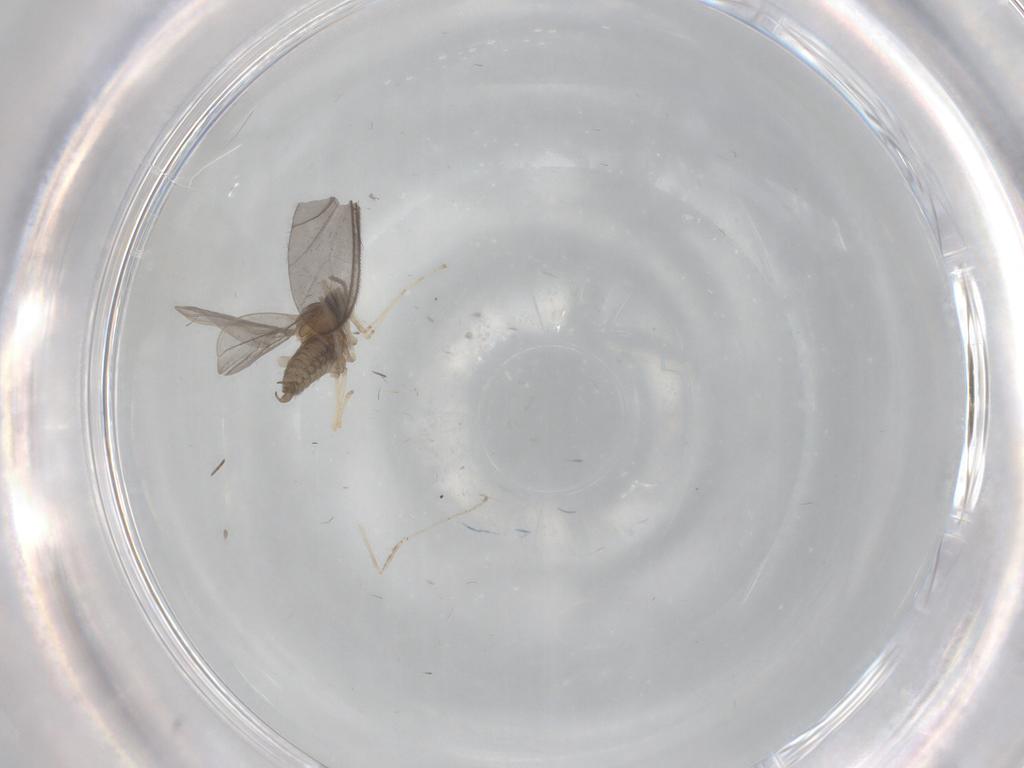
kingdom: Animalia
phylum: Arthropoda
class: Insecta
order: Diptera
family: Cecidomyiidae
